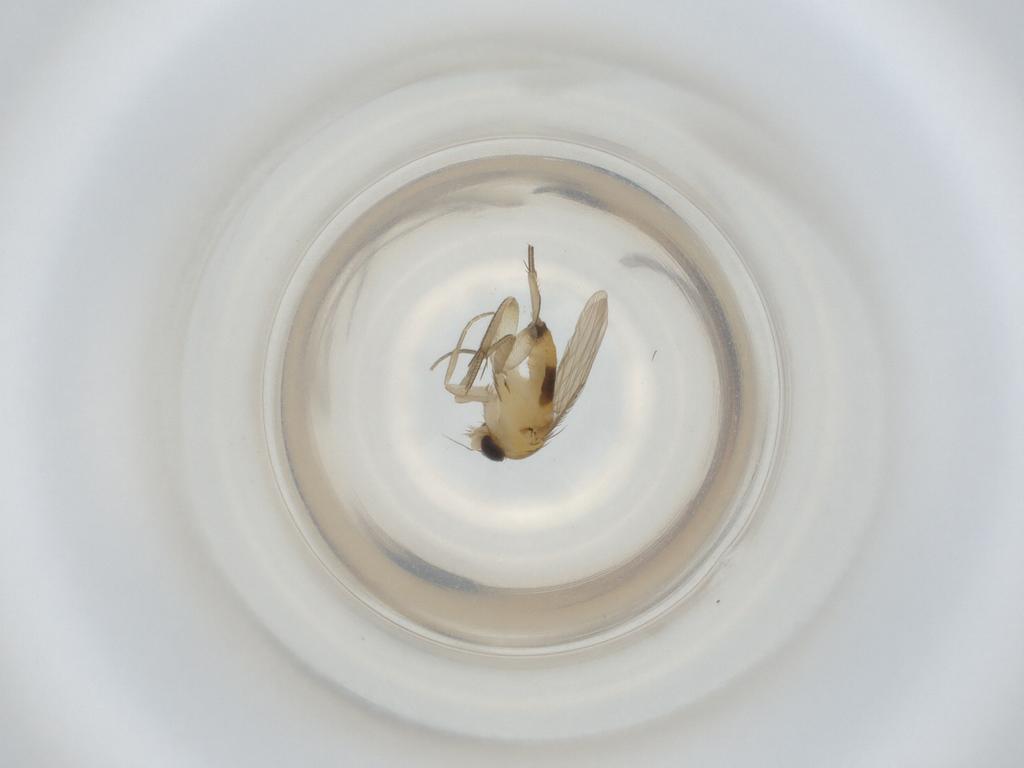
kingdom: Animalia
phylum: Arthropoda
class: Insecta
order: Diptera
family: Phoridae
